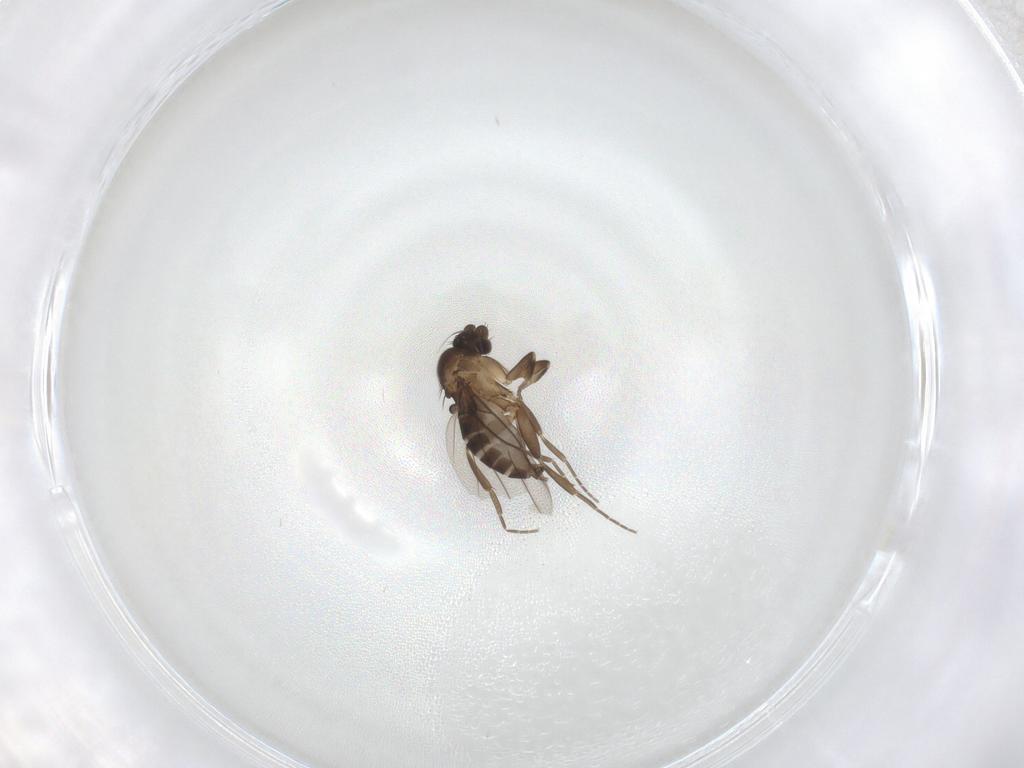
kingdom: Animalia
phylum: Arthropoda
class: Insecta
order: Diptera
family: Phoridae
